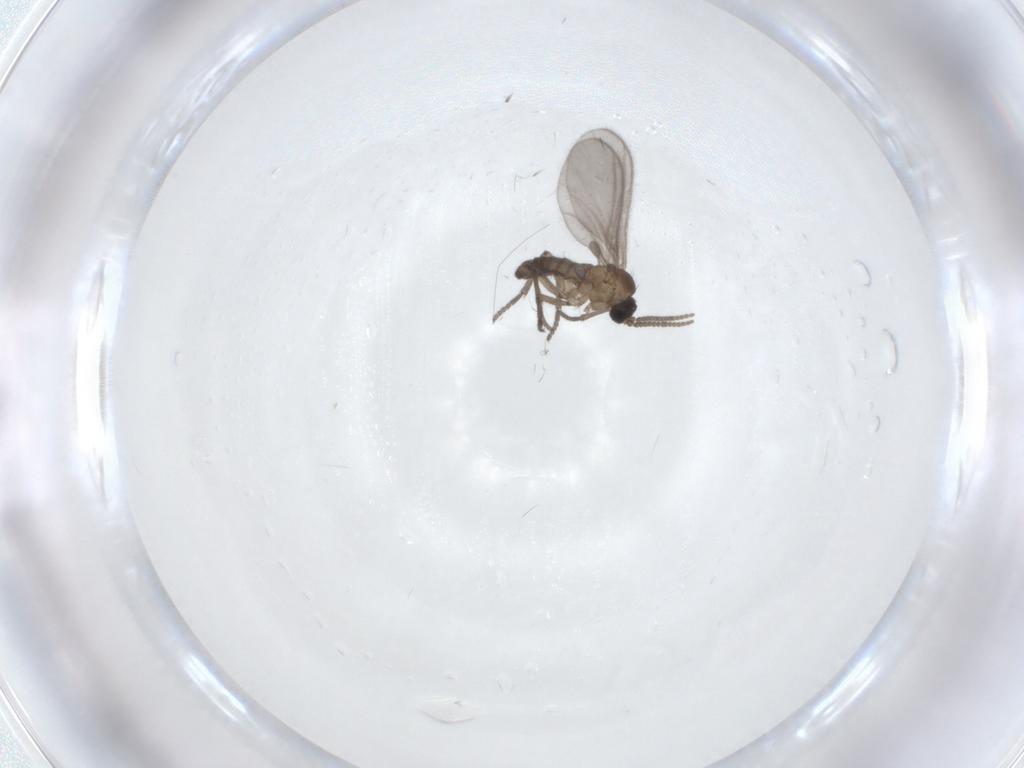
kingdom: Animalia
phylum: Arthropoda
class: Insecta
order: Diptera
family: Sciaridae
